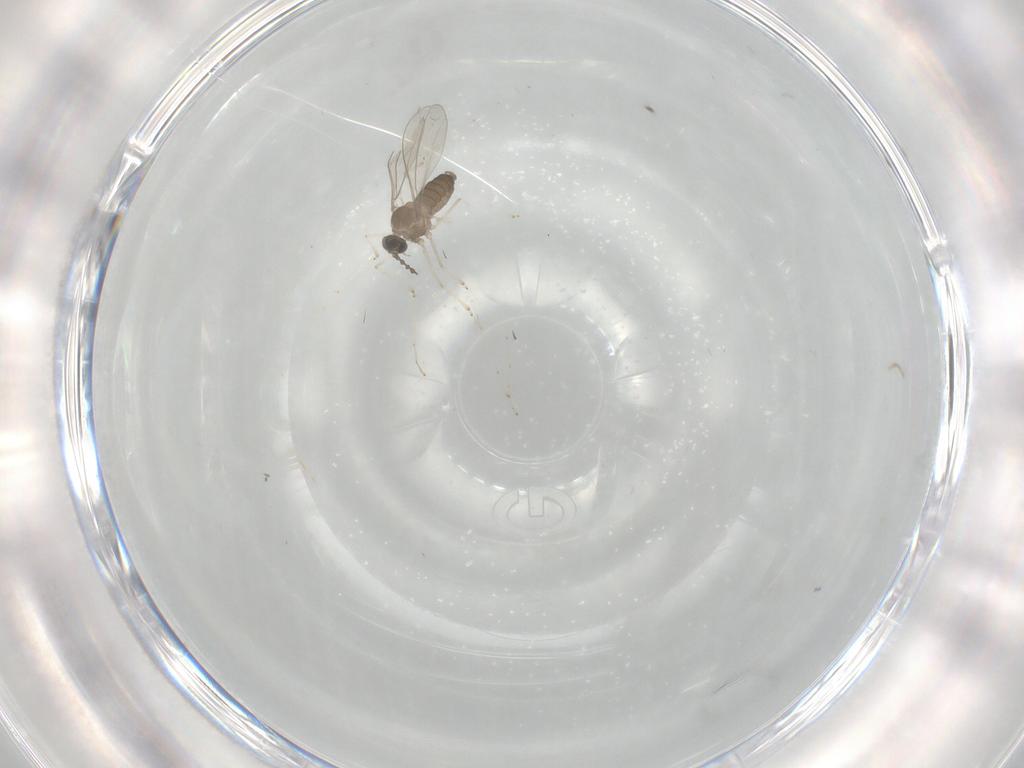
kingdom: Animalia
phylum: Arthropoda
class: Insecta
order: Diptera
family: Cecidomyiidae
